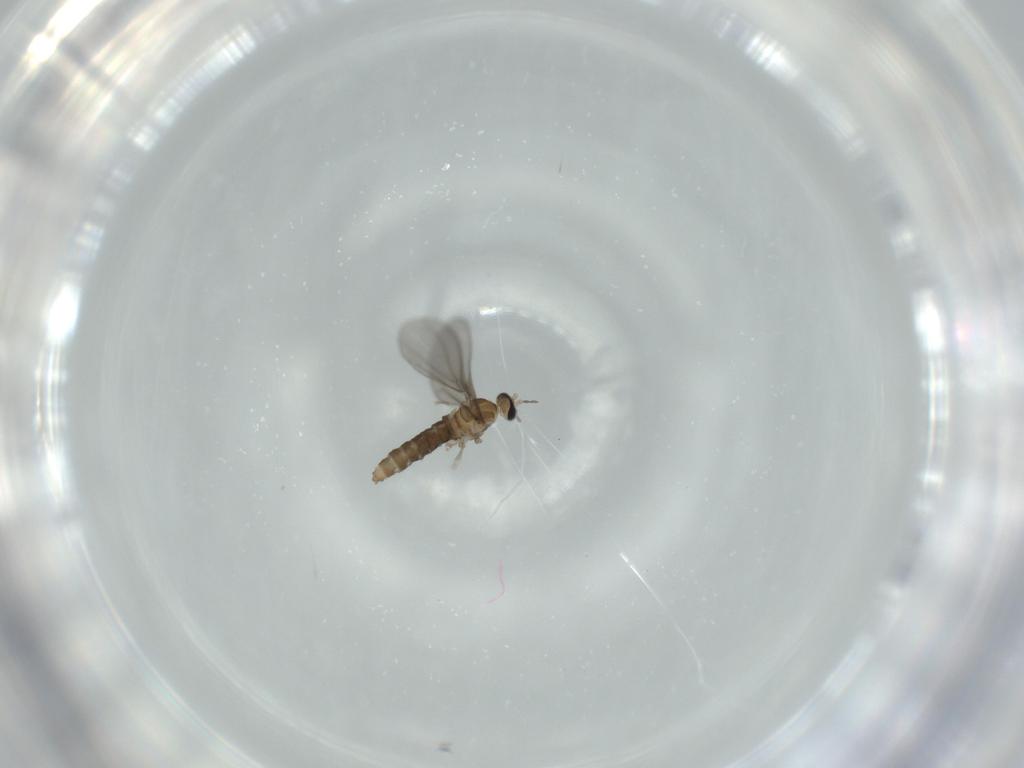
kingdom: Animalia
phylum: Arthropoda
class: Insecta
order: Diptera
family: Cecidomyiidae
